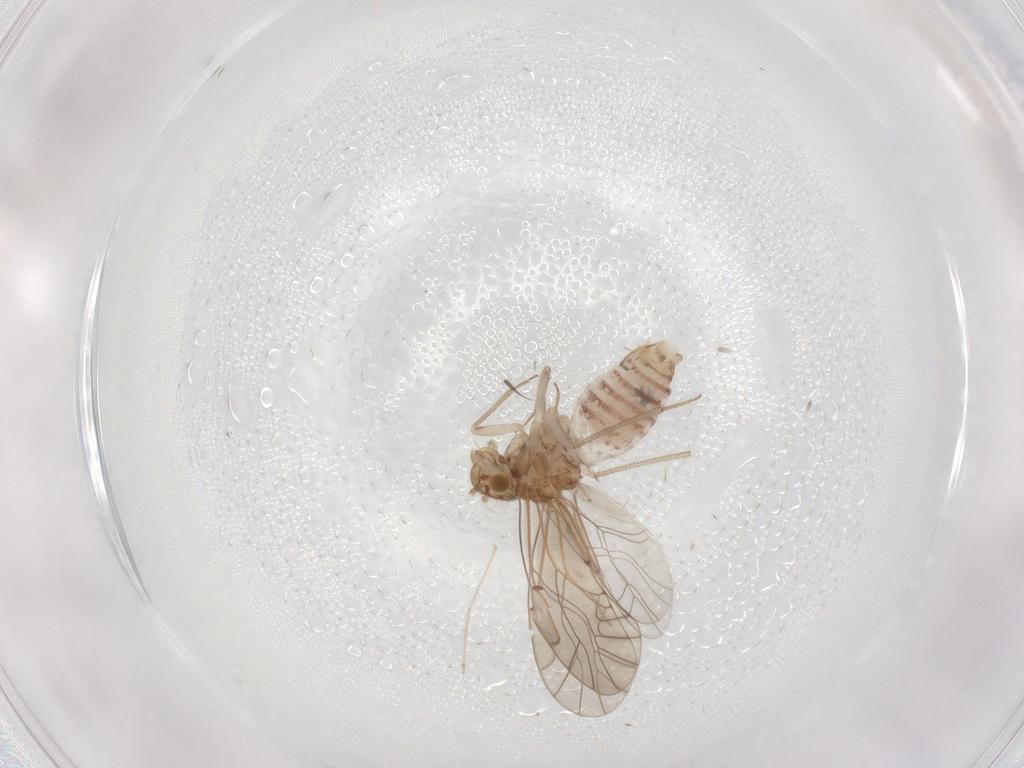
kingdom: Animalia
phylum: Arthropoda
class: Insecta
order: Psocodea
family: Lachesillidae
